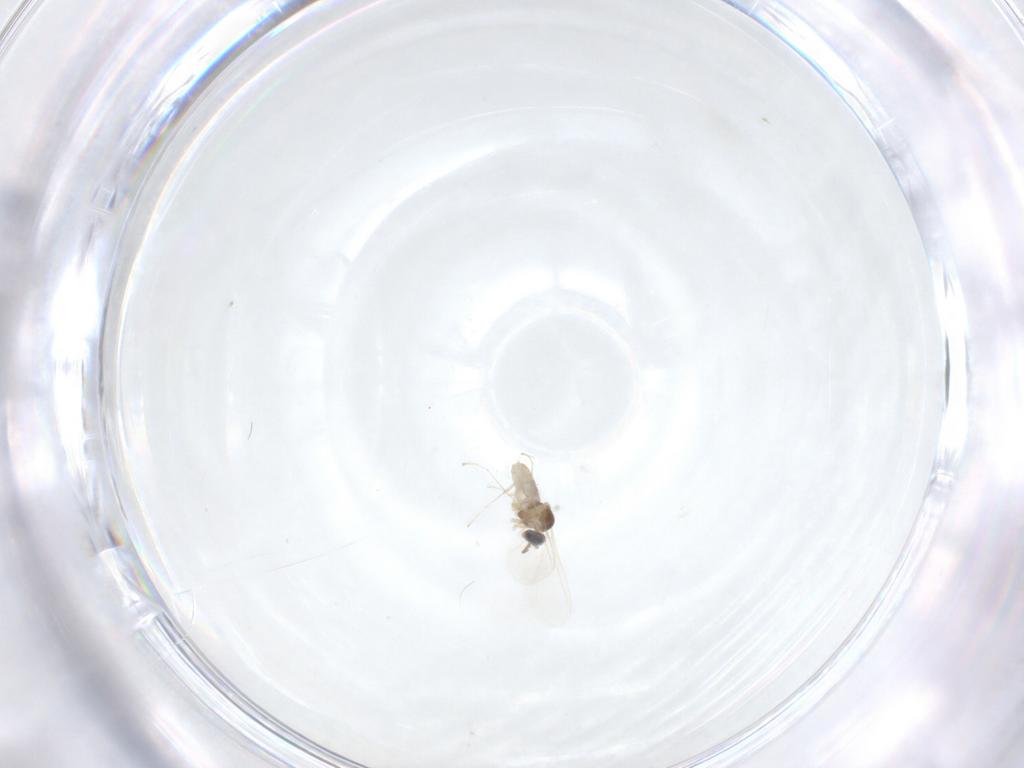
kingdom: Animalia
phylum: Arthropoda
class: Insecta
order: Diptera
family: Cecidomyiidae
